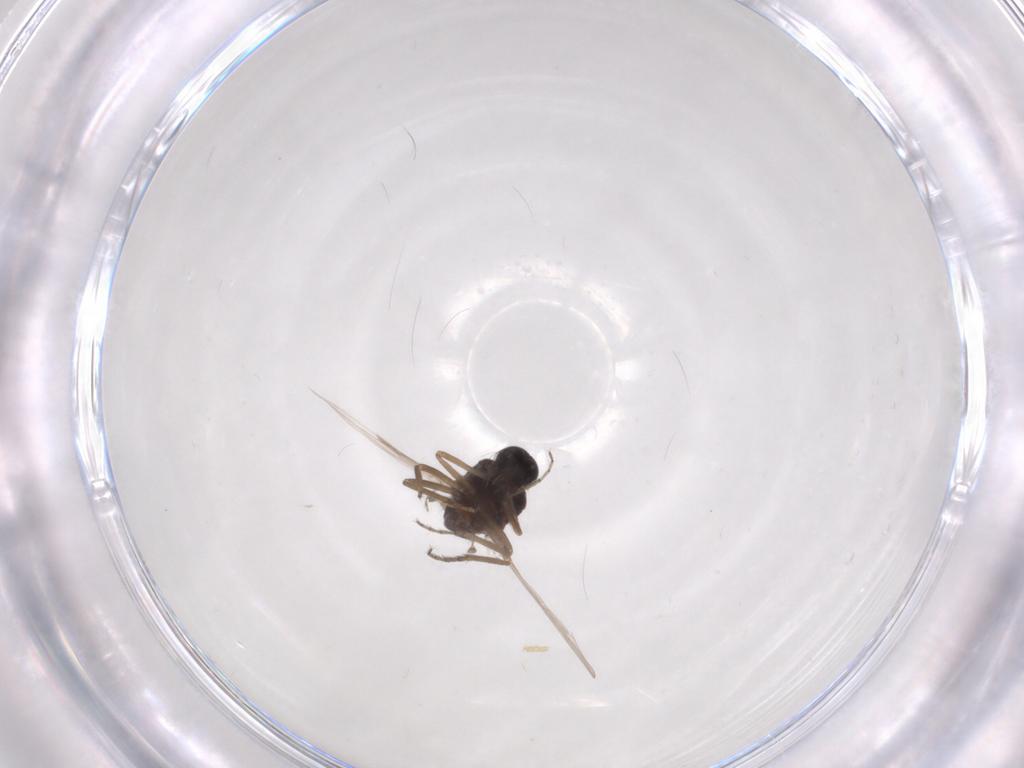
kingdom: Animalia
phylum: Arthropoda
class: Insecta
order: Diptera
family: Ceratopogonidae
